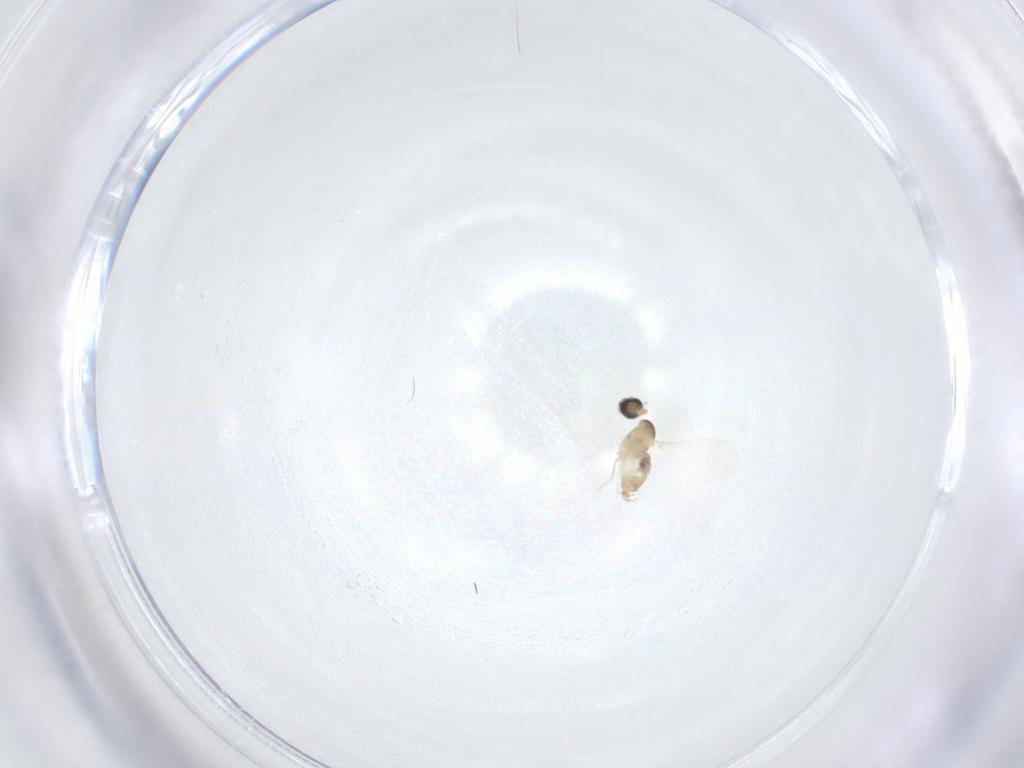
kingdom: Animalia
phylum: Arthropoda
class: Insecta
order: Diptera
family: Cecidomyiidae
